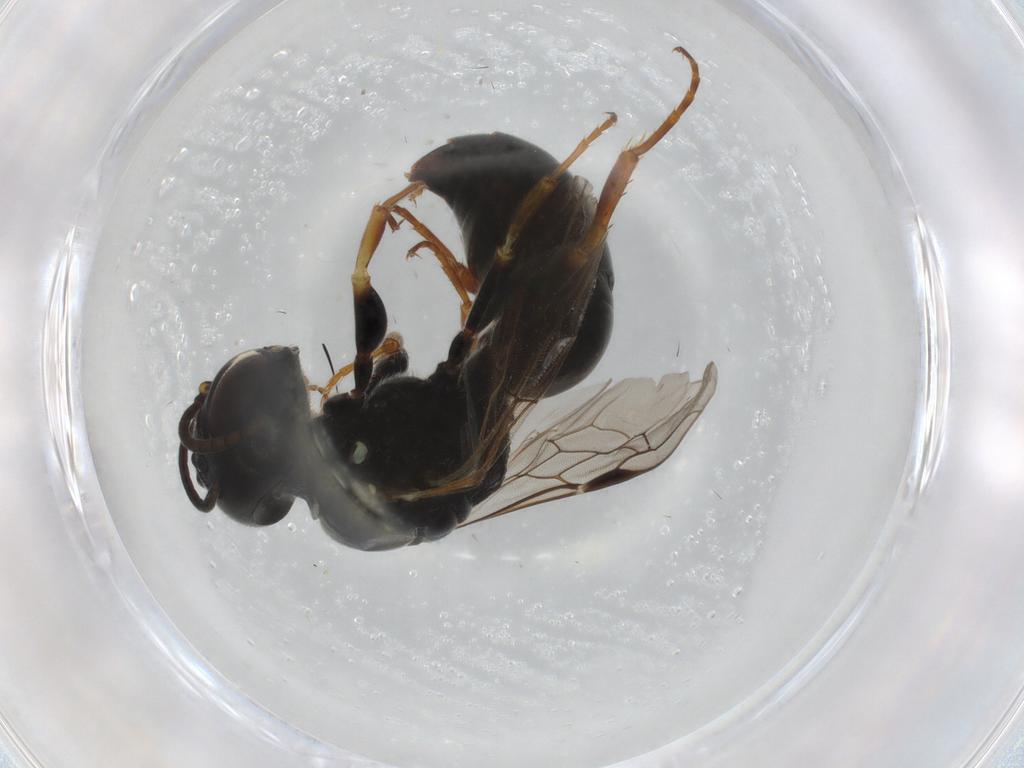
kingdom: Animalia
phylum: Arthropoda
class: Insecta
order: Hymenoptera
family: Crabronidae
